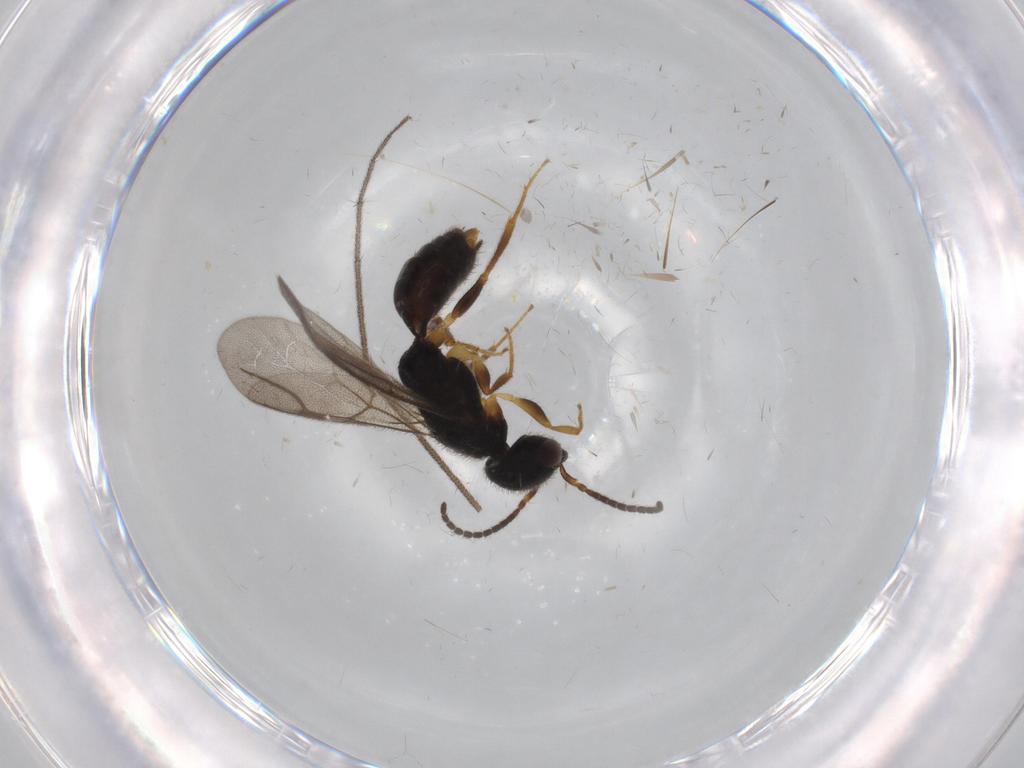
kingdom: Animalia
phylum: Arthropoda
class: Insecta
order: Hymenoptera
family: Bethylidae
